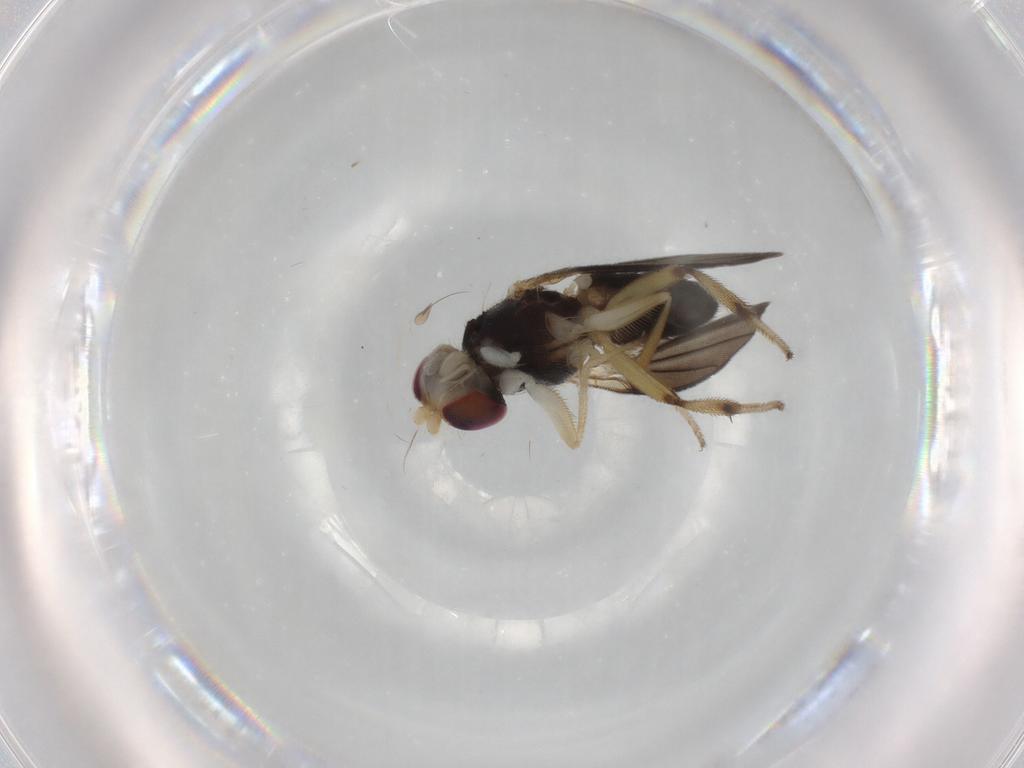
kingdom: Animalia
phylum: Arthropoda
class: Insecta
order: Diptera
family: Clusiidae
